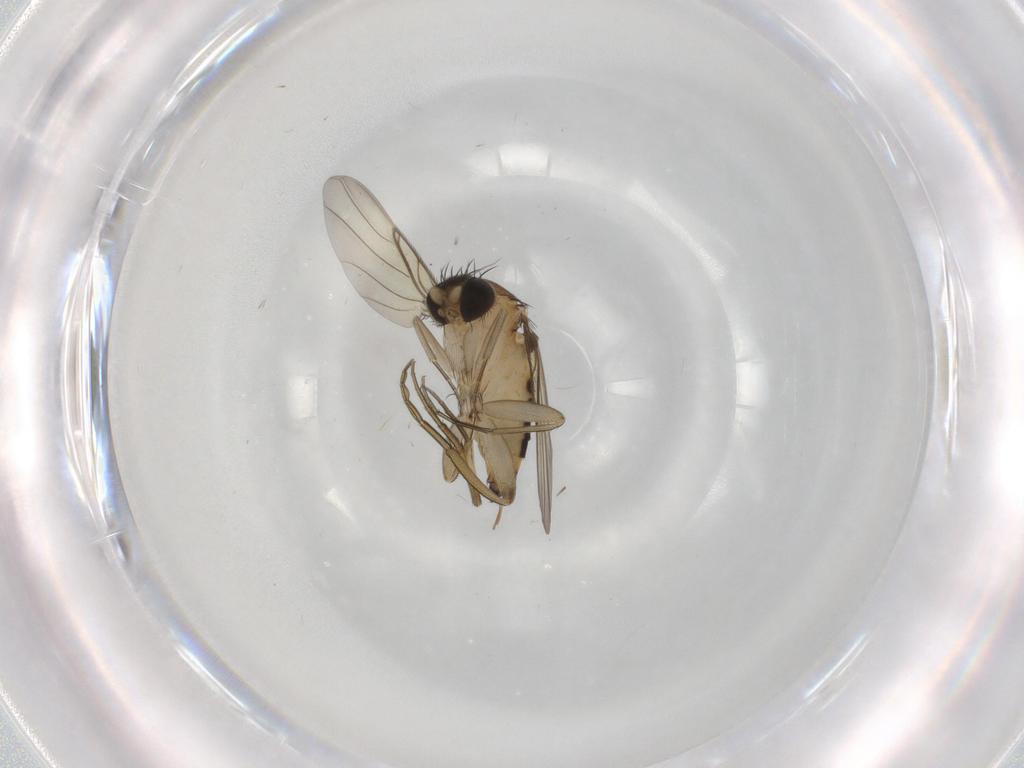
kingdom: Animalia
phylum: Arthropoda
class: Insecta
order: Diptera
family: Phoridae
